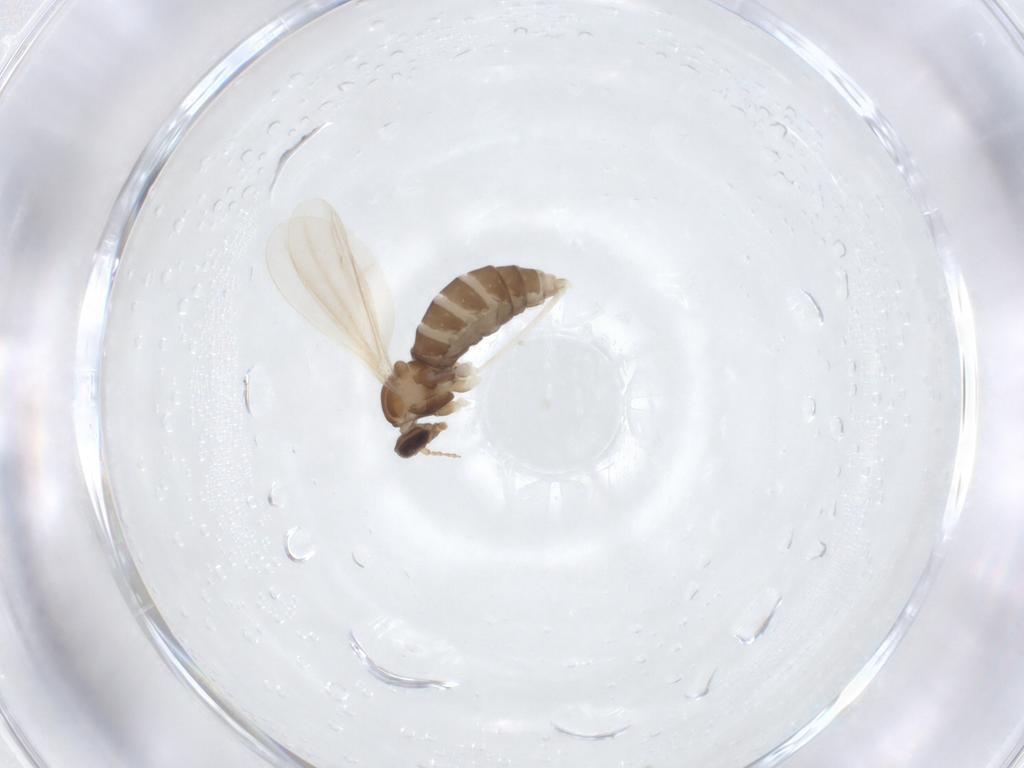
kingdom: Animalia
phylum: Arthropoda
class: Insecta
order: Diptera
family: Cecidomyiidae
